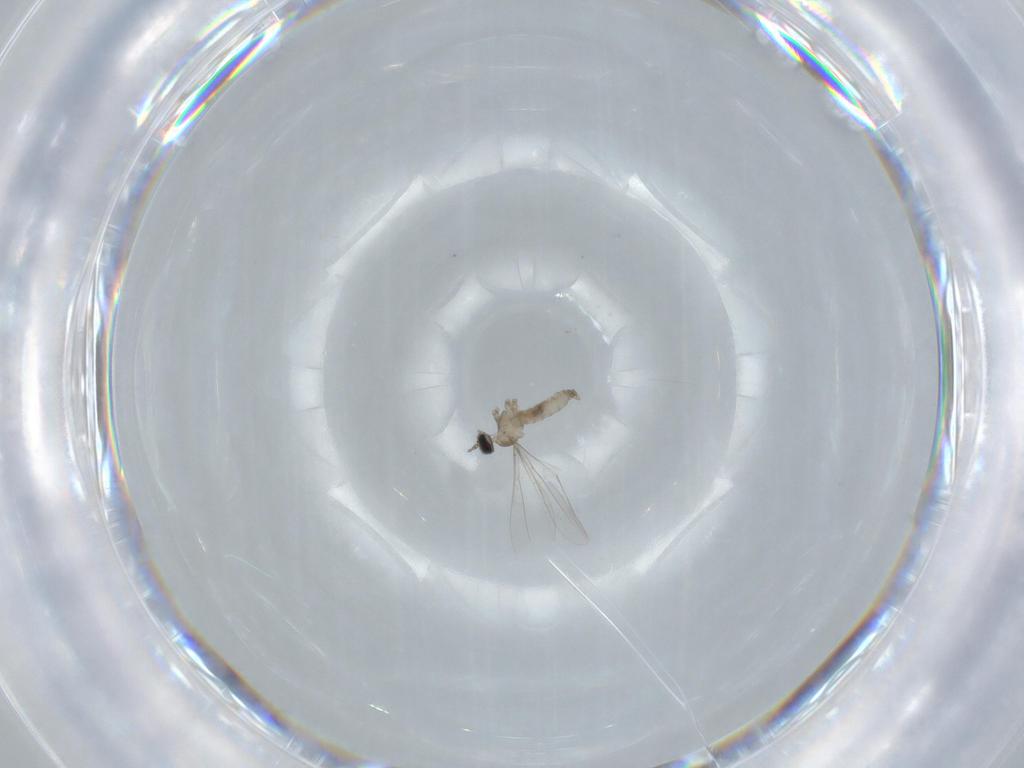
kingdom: Animalia
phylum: Arthropoda
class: Insecta
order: Diptera
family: Cecidomyiidae
